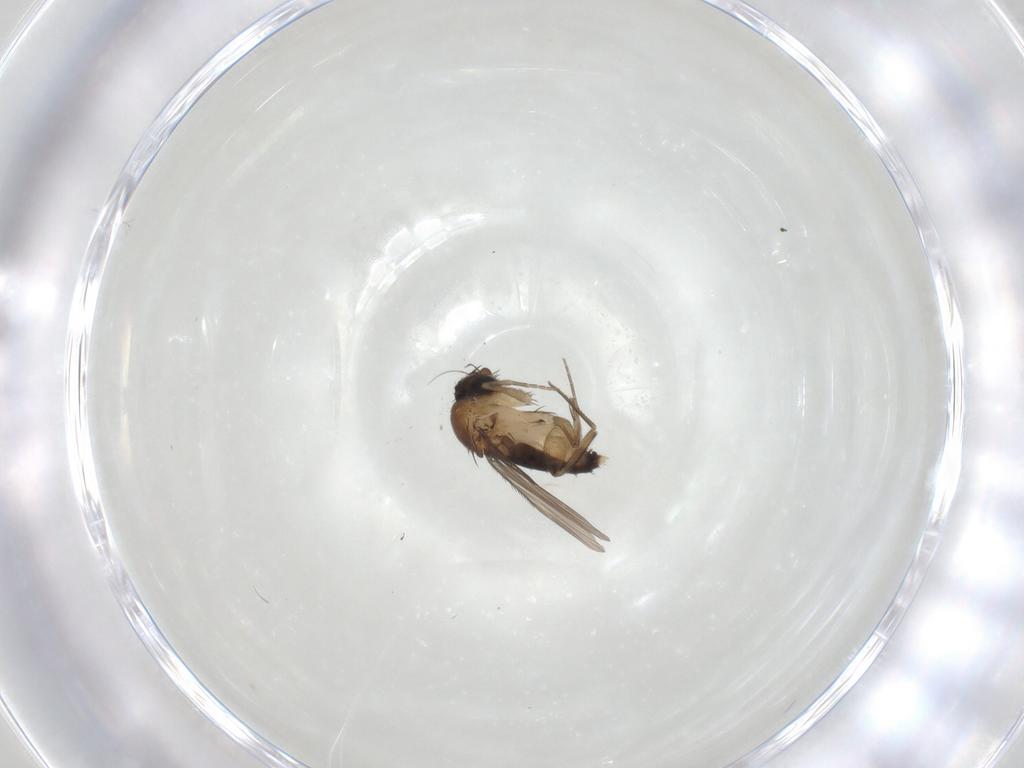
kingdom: Animalia
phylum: Arthropoda
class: Insecta
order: Diptera
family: Phoridae
